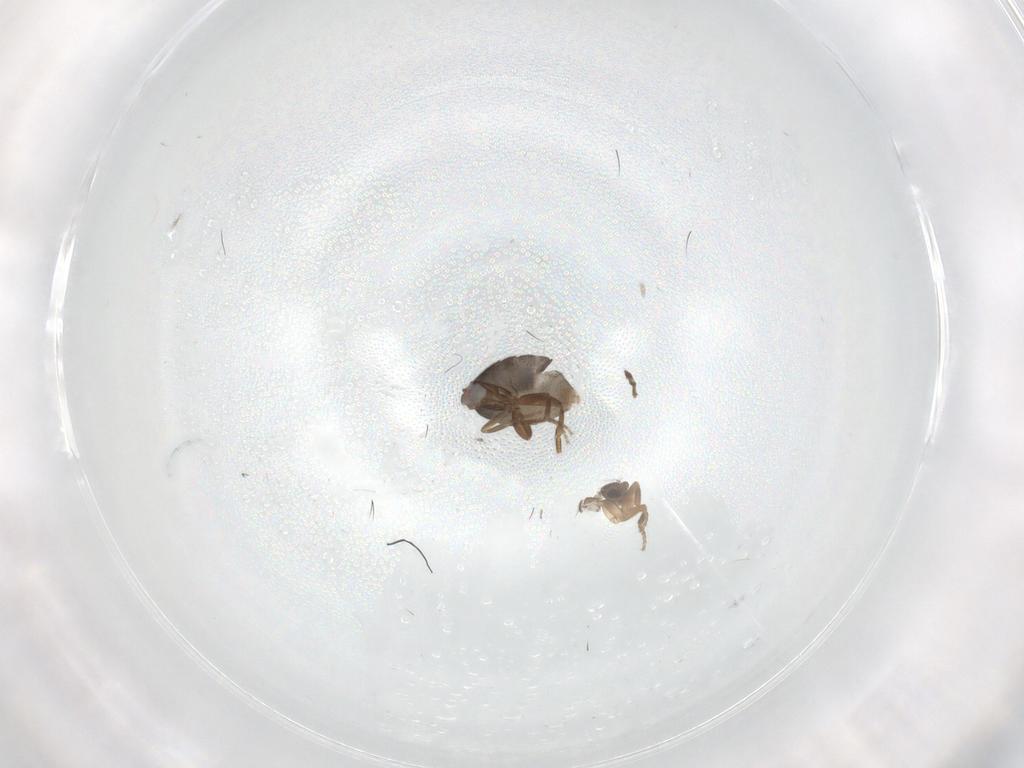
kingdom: Animalia
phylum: Arthropoda
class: Insecta
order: Diptera
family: Phoridae
